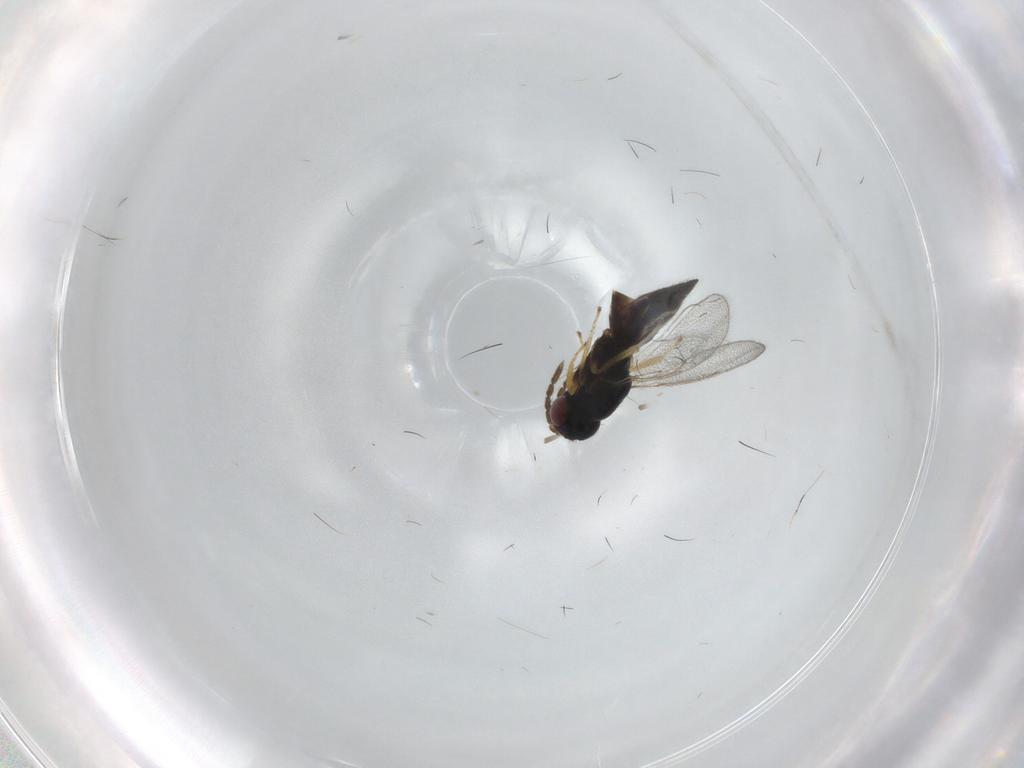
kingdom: Animalia
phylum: Arthropoda
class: Insecta
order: Hymenoptera
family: Eulophidae
